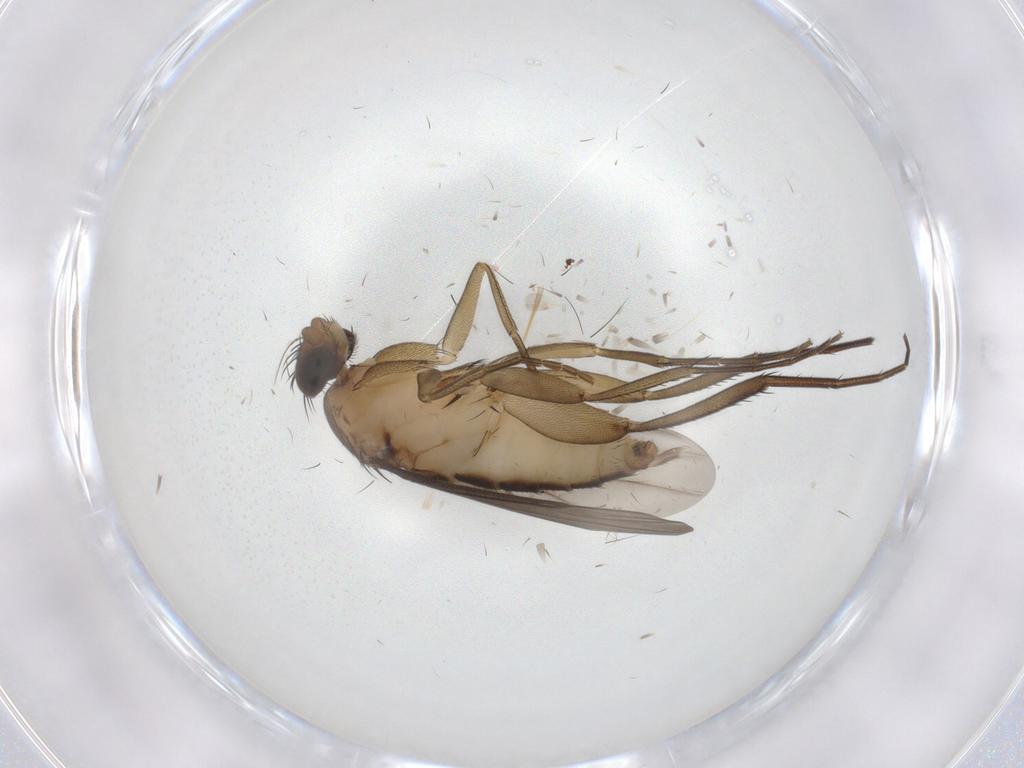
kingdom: Animalia
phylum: Arthropoda
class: Insecta
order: Diptera
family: Phoridae
